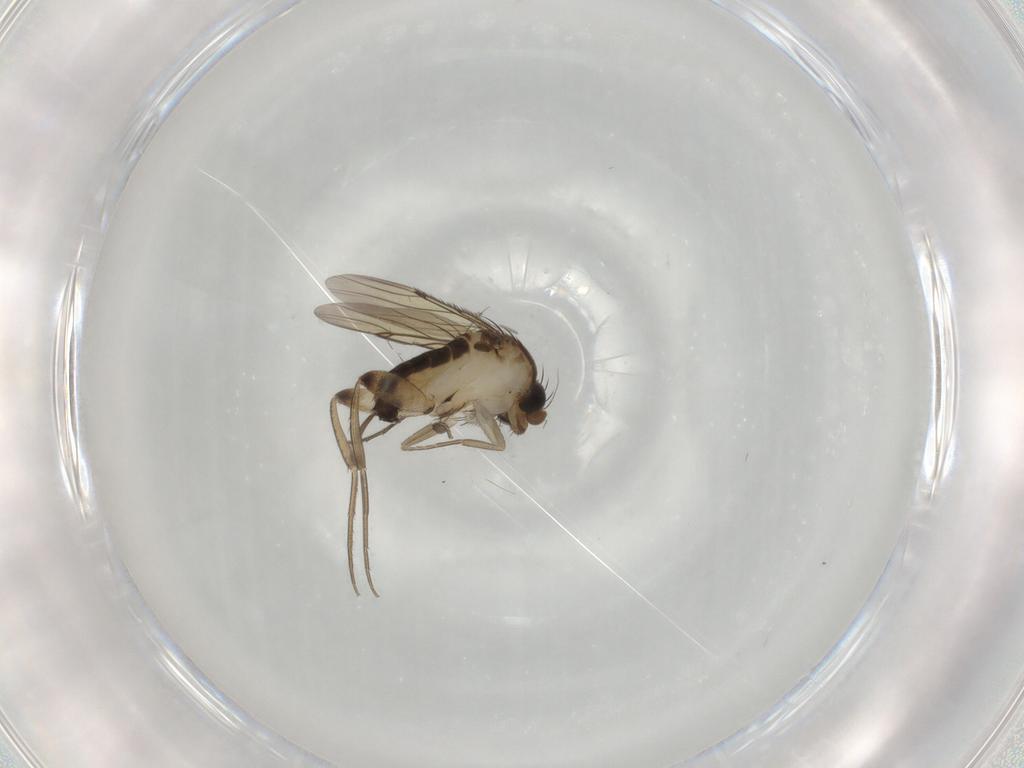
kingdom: Animalia
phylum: Arthropoda
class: Insecta
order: Diptera
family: Phoridae
